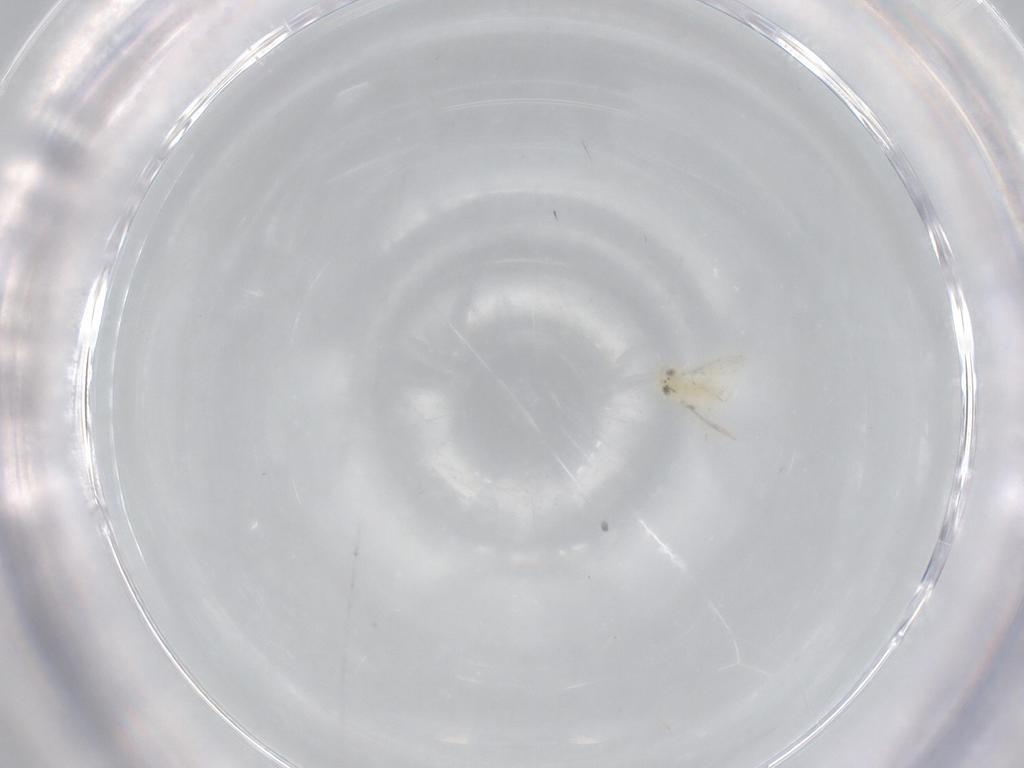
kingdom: Animalia
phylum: Arthropoda
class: Insecta
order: Hymenoptera
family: Aphelinidae
